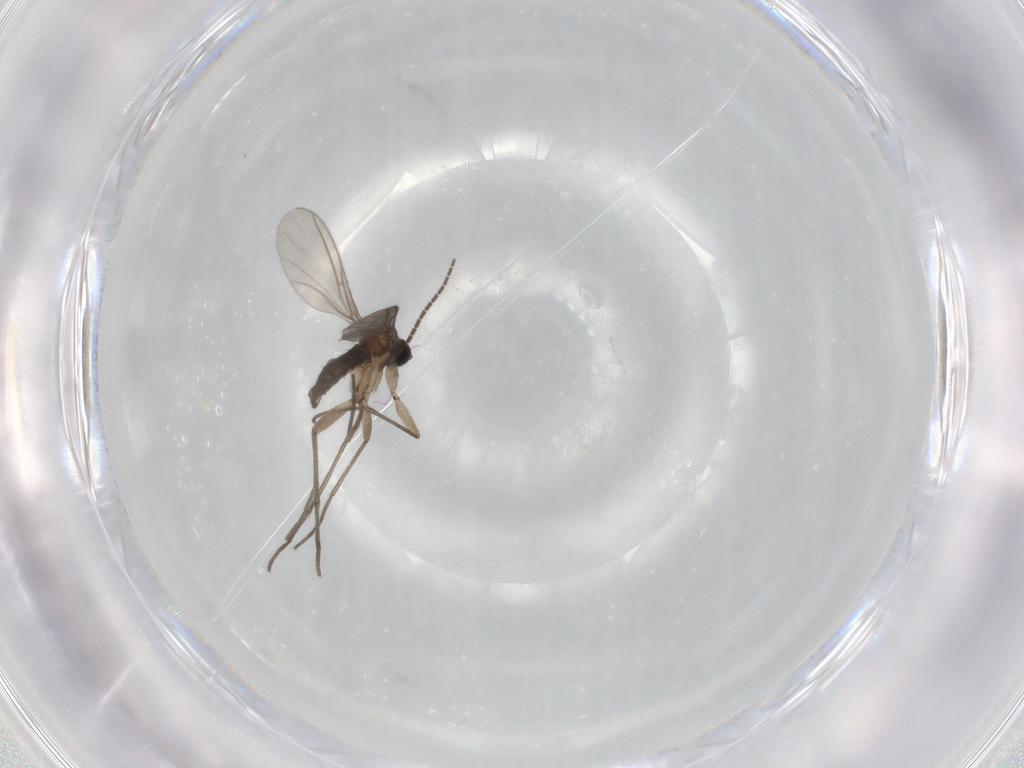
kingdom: Animalia
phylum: Arthropoda
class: Insecta
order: Diptera
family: Sciaridae
